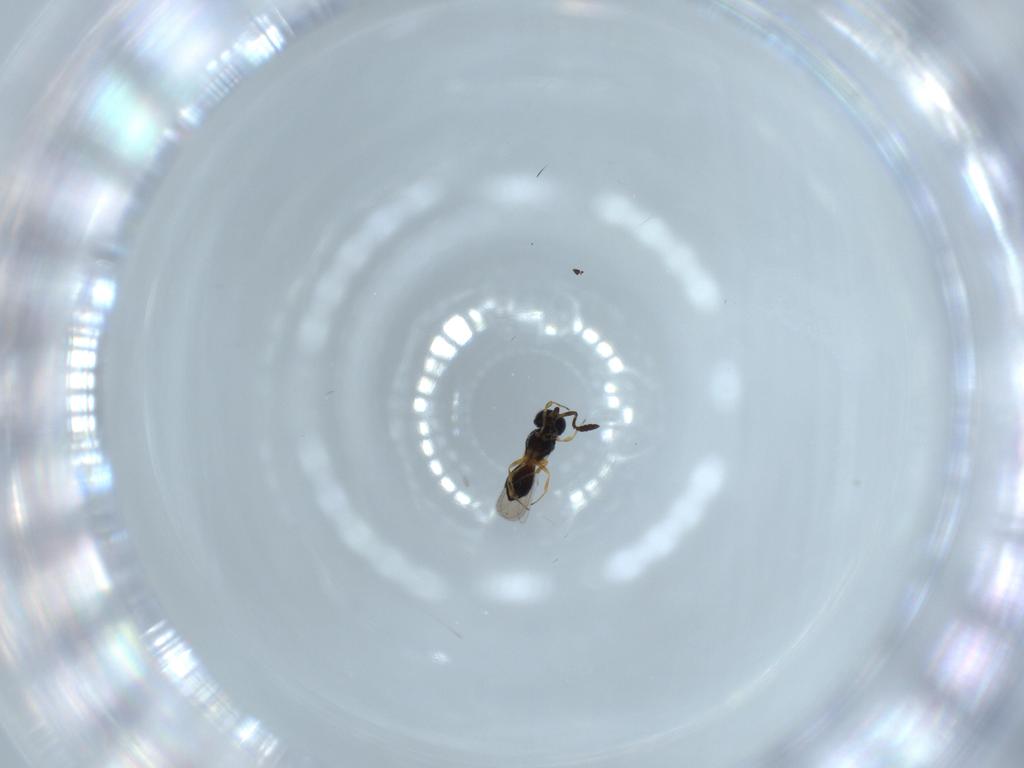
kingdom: Animalia
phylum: Arthropoda
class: Insecta
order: Hymenoptera
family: Scelionidae
